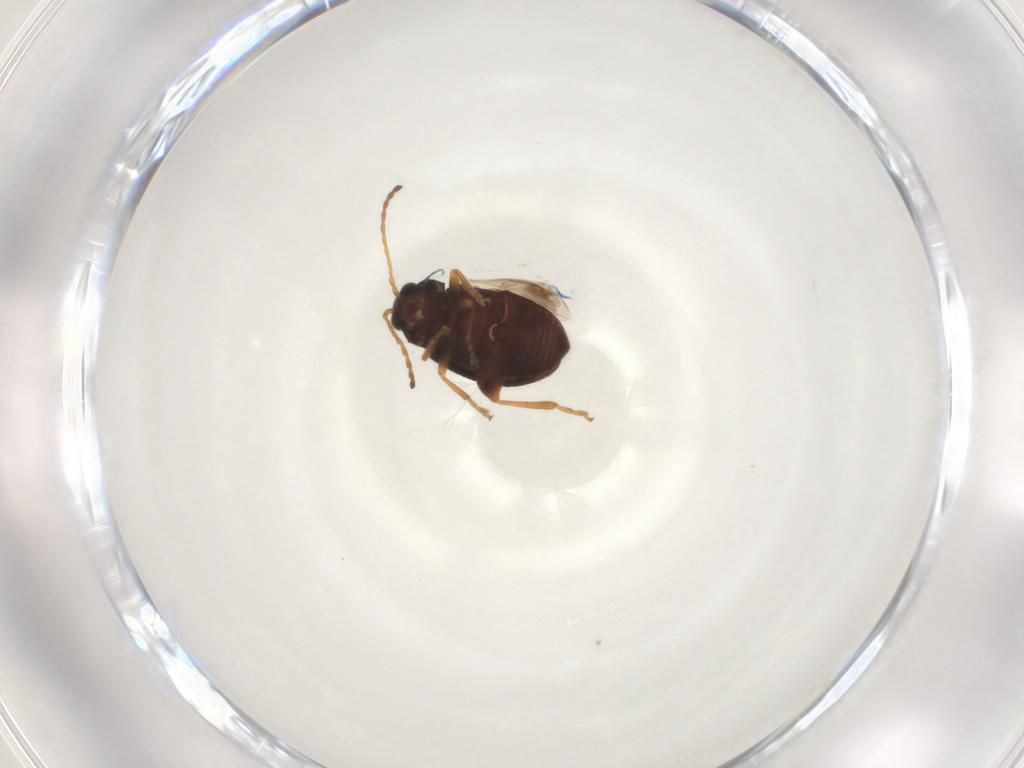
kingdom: Animalia
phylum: Arthropoda
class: Insecta
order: Coleoptera
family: Chrysomelidae
